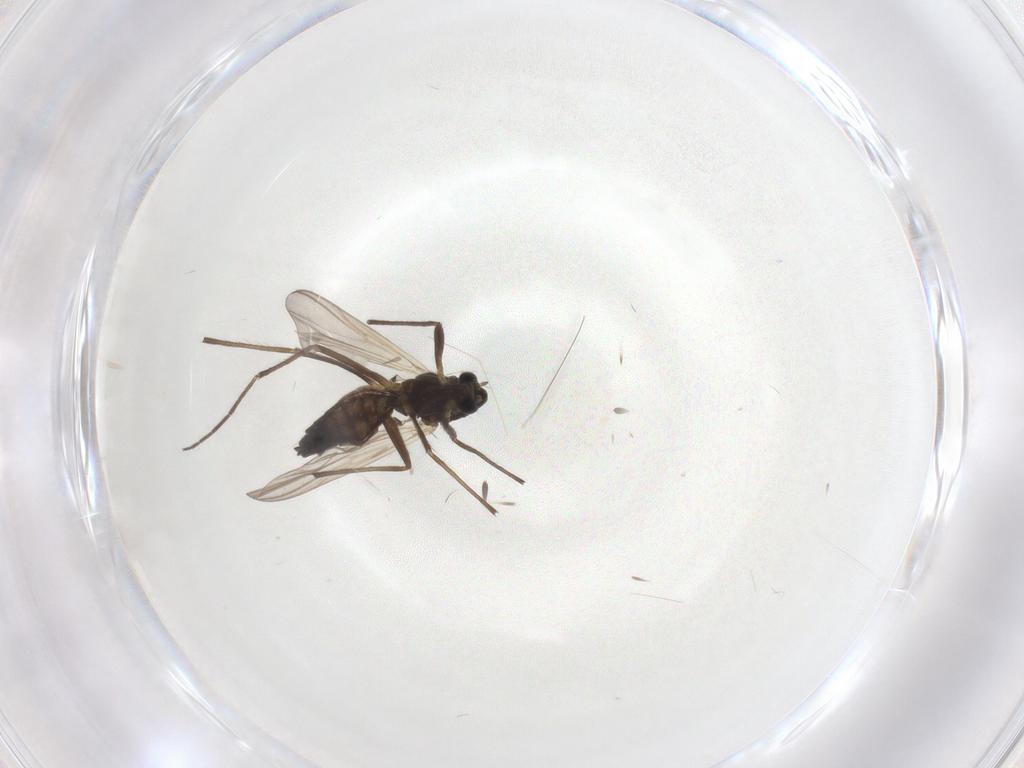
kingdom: Animalia
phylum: Arthropoda
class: Insecta
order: Diptera
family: Chironomidae
